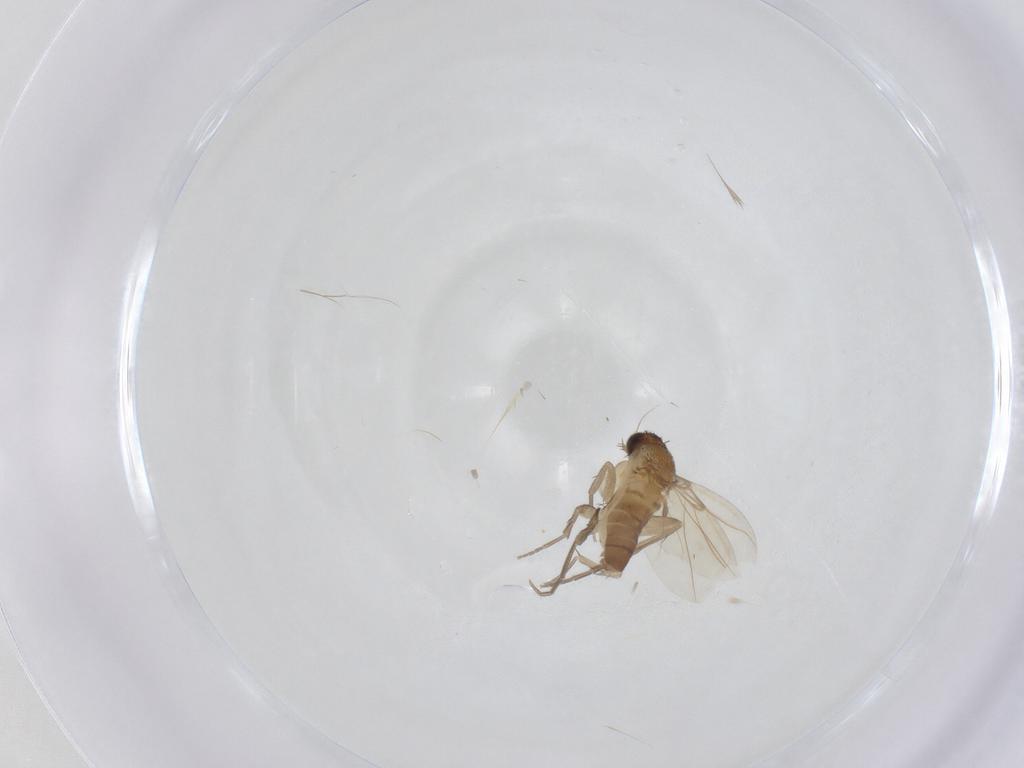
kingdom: Animalia
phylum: Arthropoda
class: Insecta
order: Diptera
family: Phoridae
